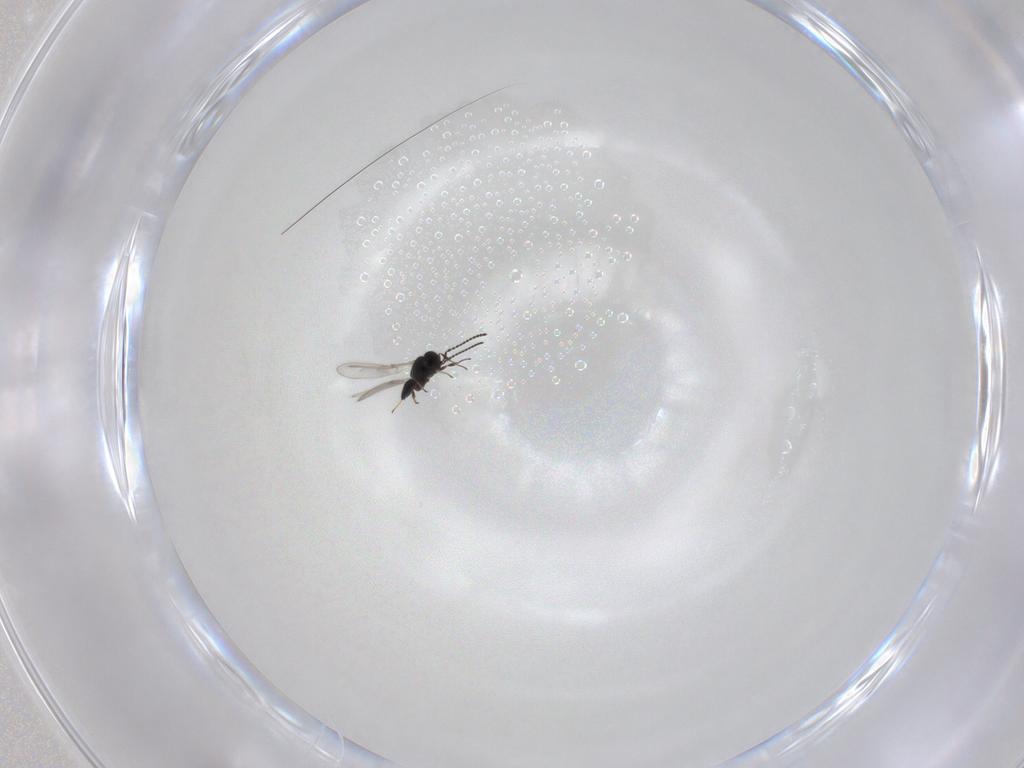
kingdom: Animalia
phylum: Arthropoda
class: Insecta
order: Hymenoptera
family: Scelionidae
